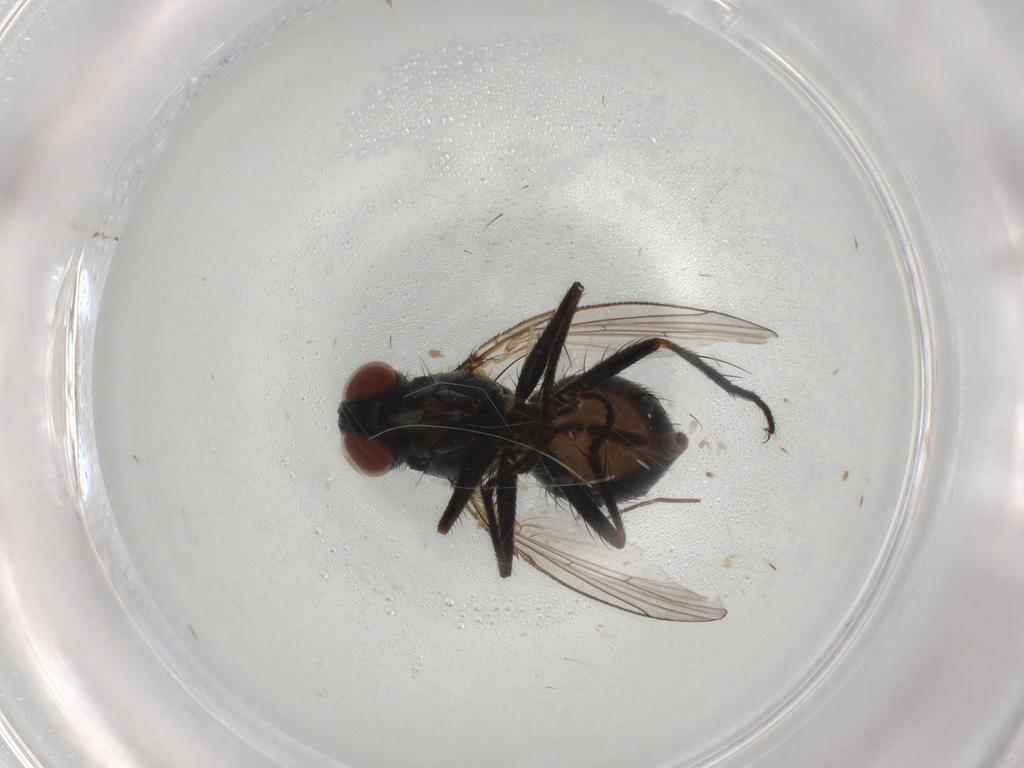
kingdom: Animalia
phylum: Arthropoda
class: Insecta
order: Diptera
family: Muscidae
